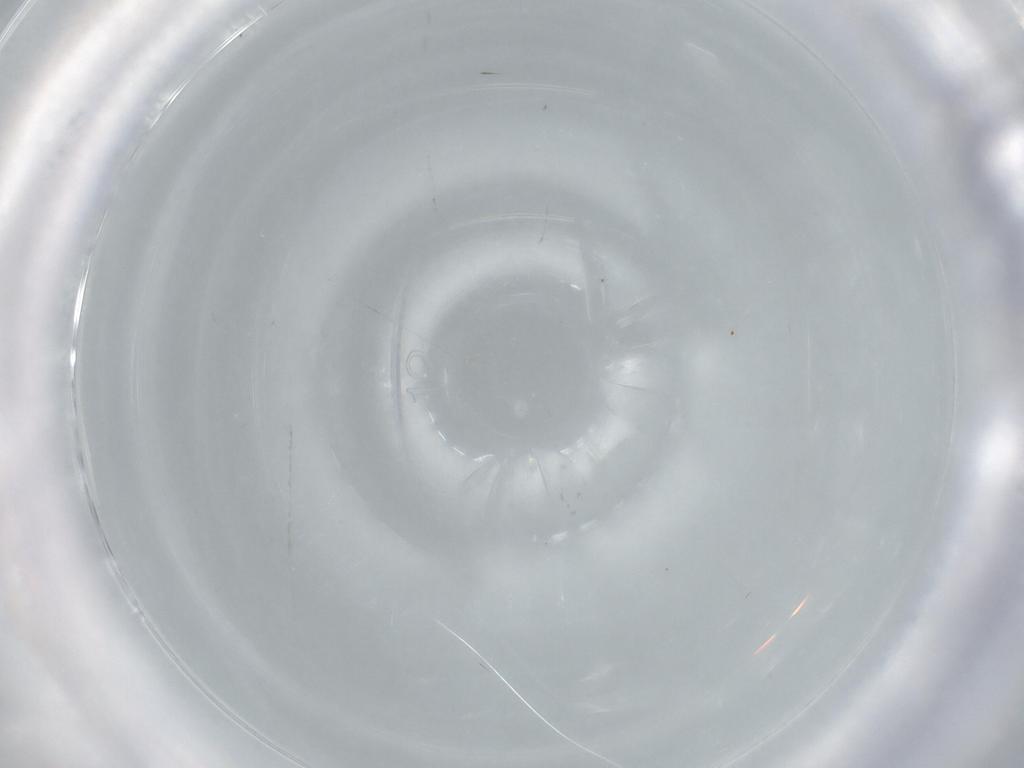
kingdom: Animalia
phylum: Arthropoda
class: Insecta
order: Hymenoptera
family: Mymaridae
